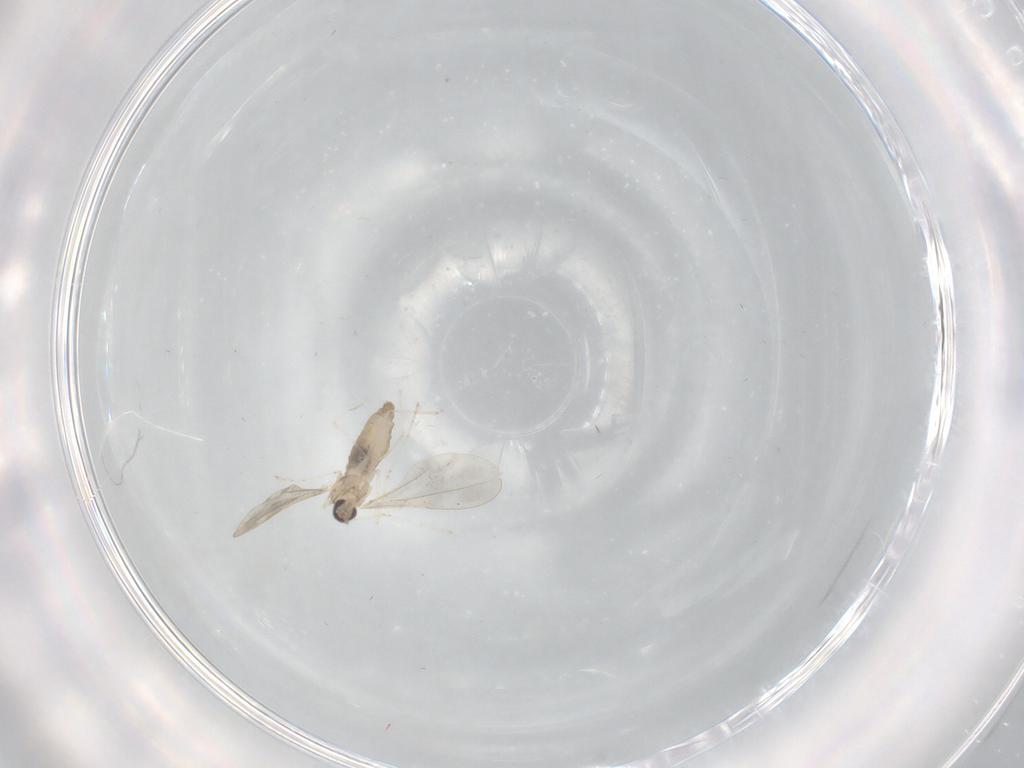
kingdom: Animalia
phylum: Arthropoda
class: Insecta
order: Diptera
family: Cecidomyiidae
